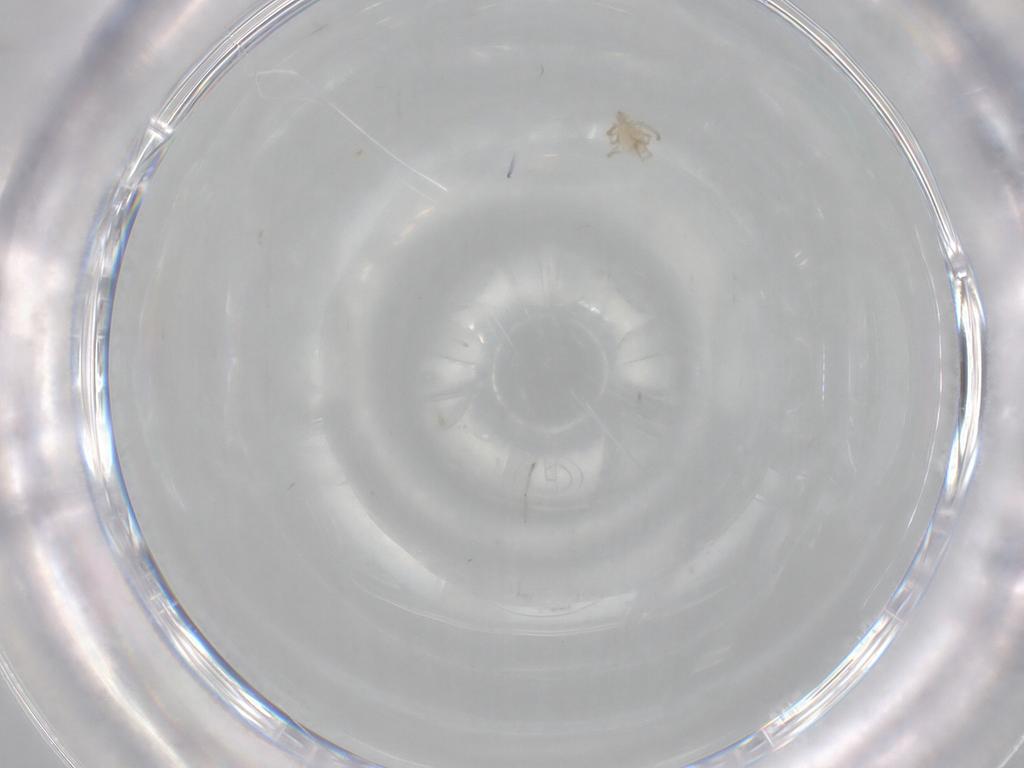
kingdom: Animalia
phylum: Arthropoda
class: Arachnida
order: Trombidiformes
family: Erythraeidae
